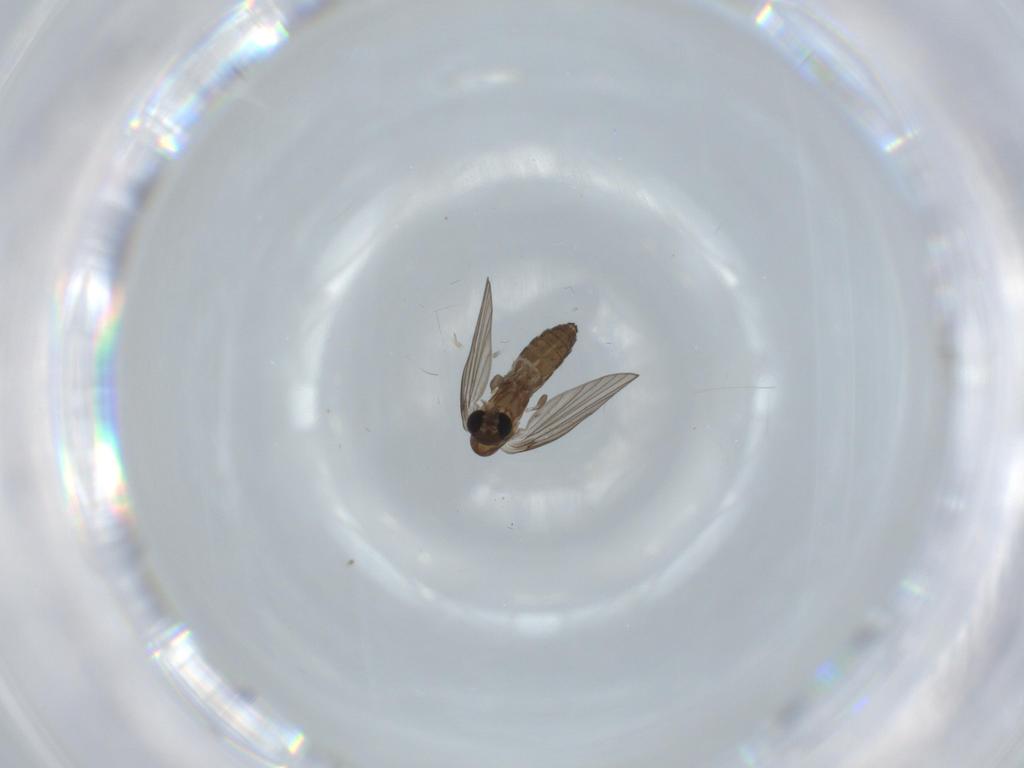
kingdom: Animalia
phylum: Arthropoda
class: Insecta
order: Diptera
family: Psychodidae
